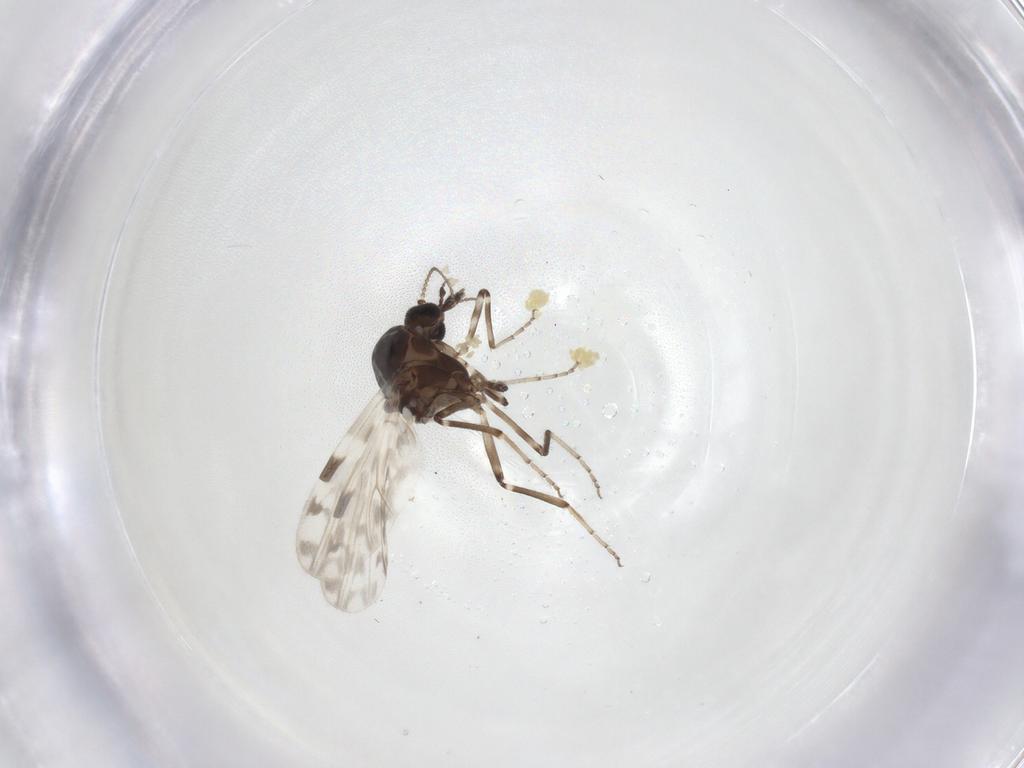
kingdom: Animalia
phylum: Arthropoda
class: Insecta
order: Diptera
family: Ceratopogonidae
